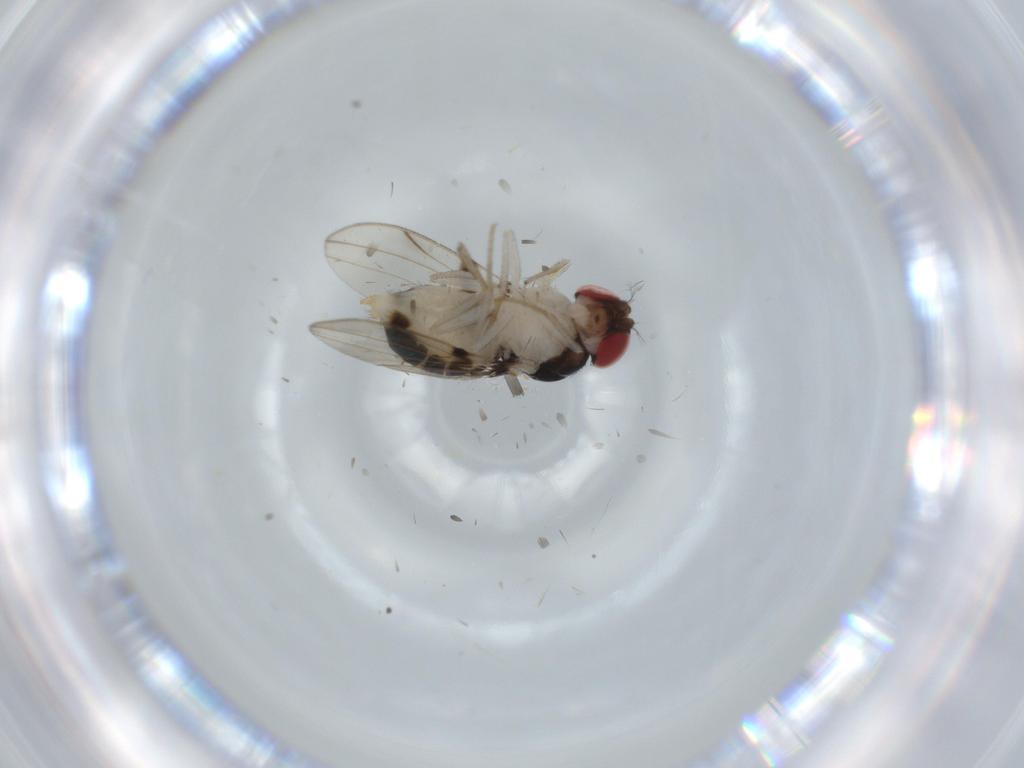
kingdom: Animalia
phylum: Arthropoda
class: Insecta
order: Diptera
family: Drosophilidae
